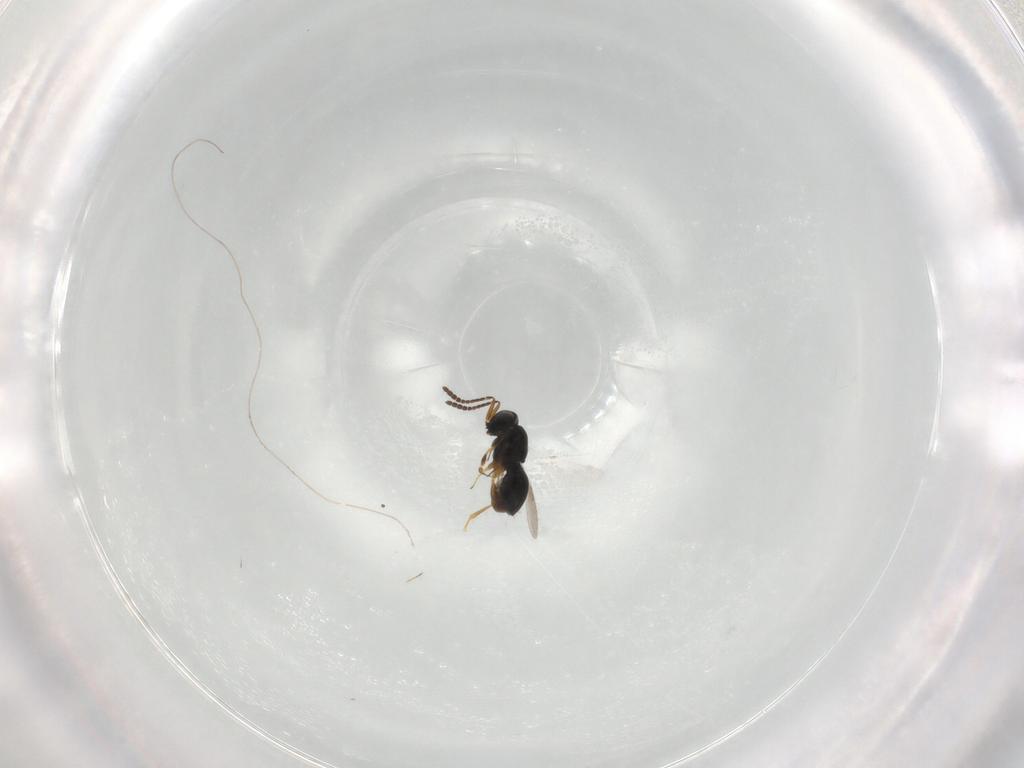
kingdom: Animalia
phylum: Arthropoda
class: Insecta
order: Hymenoptera
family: Scelionidae
